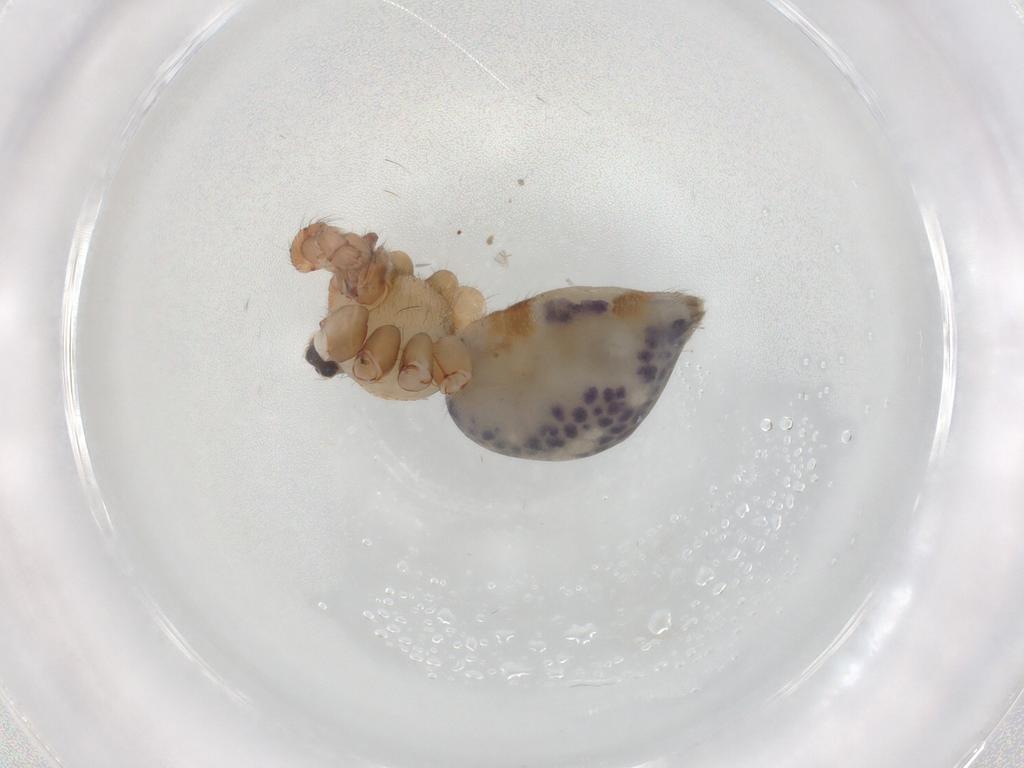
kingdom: Animalia
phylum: Arthropoda
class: Arachnida
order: Araneae
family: Pholcidae
